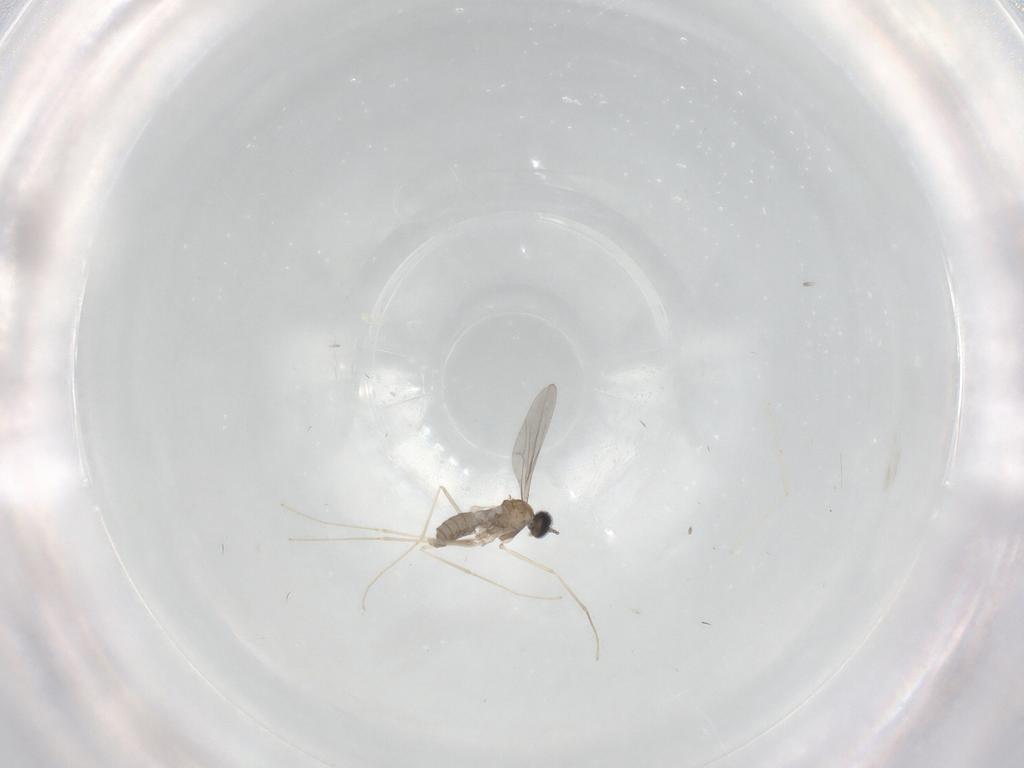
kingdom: Animalia
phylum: Arthropoda
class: Insecta
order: Diptera
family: Cecidomyiidae
